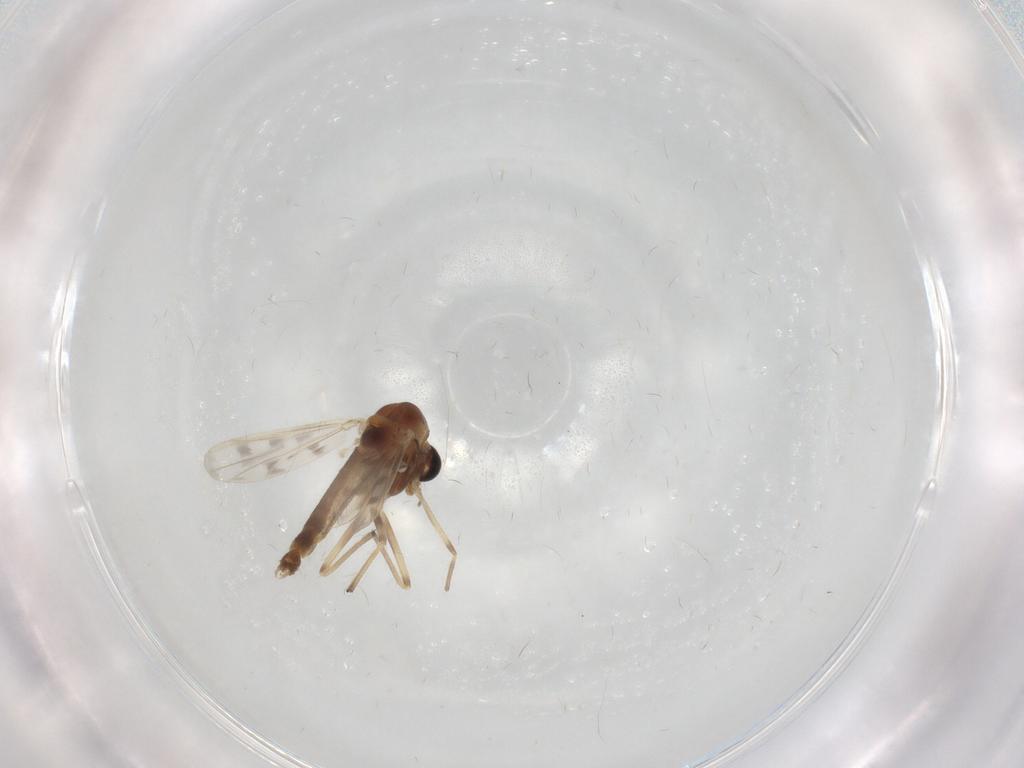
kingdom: Animalia
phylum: Arthropoda
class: Insecta
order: Diptera
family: Chironomidae
